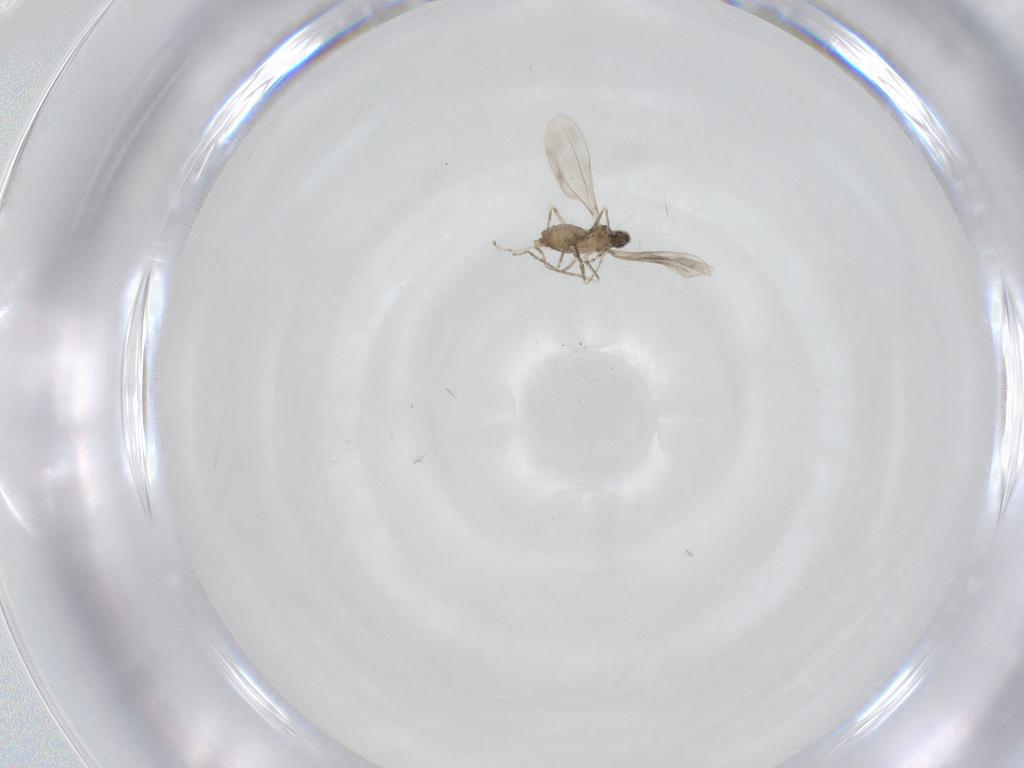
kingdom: Animalia
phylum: Arthropoda
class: Insecta
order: Diptera
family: Cecidomyiidae
